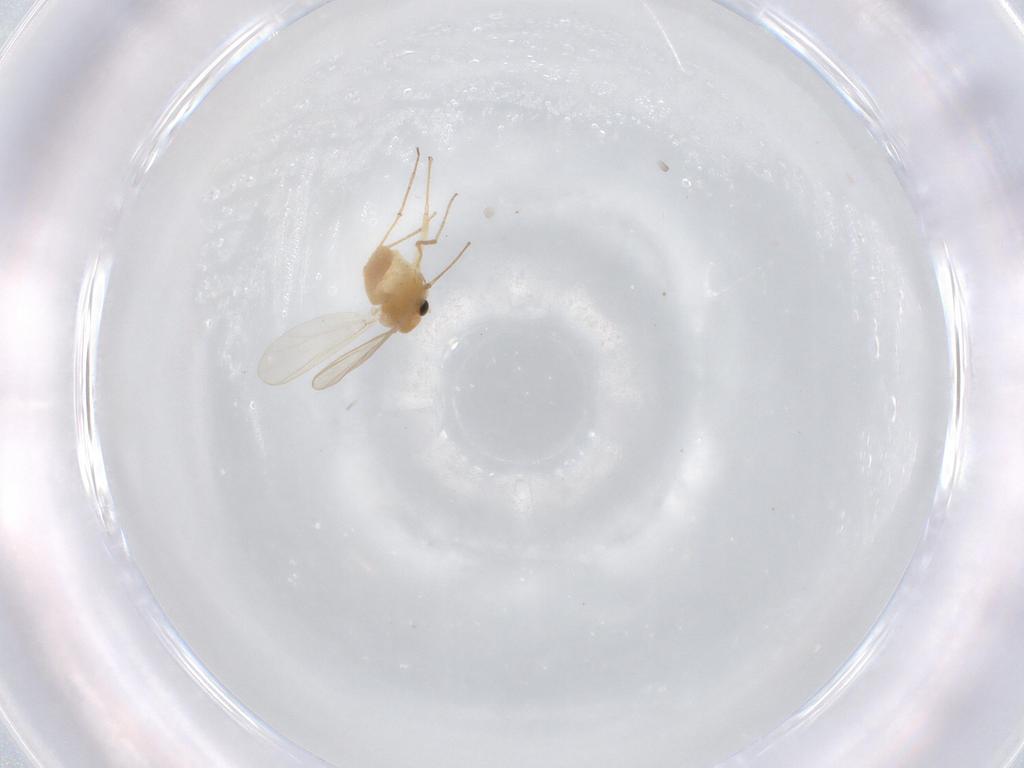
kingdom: Animalia
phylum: Arthropoda
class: Insecta
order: Diptera
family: Chironomidae
